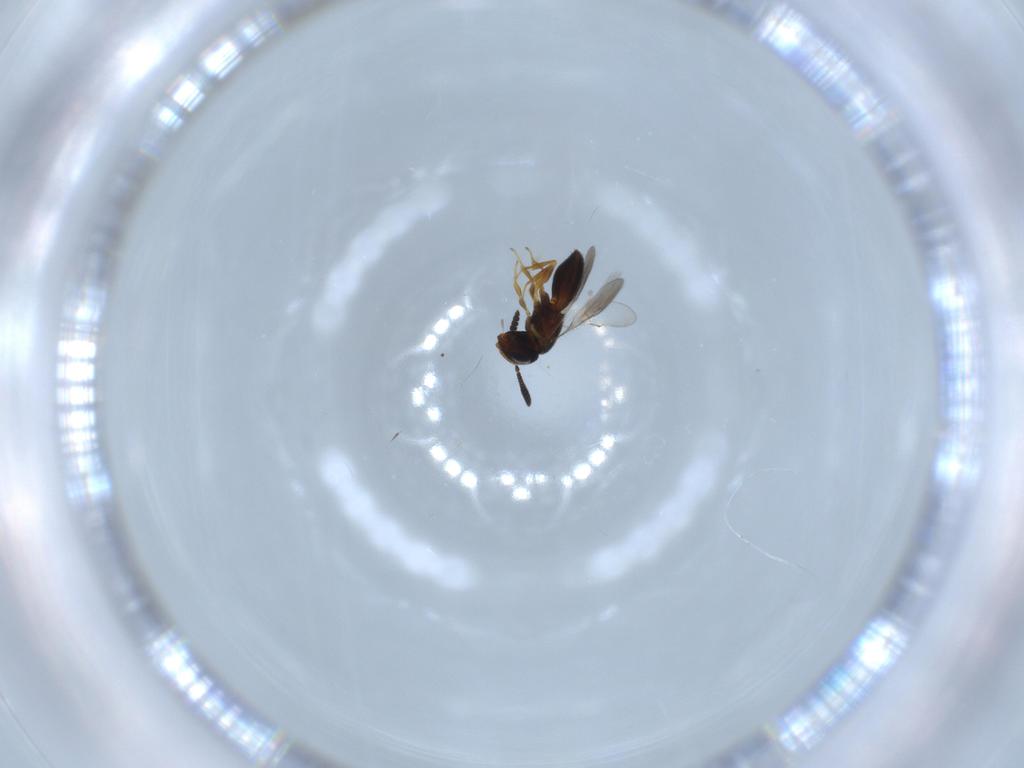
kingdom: Animalia
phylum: Arthropoda
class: Insecta
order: Hymenoptera
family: Scelionidae
